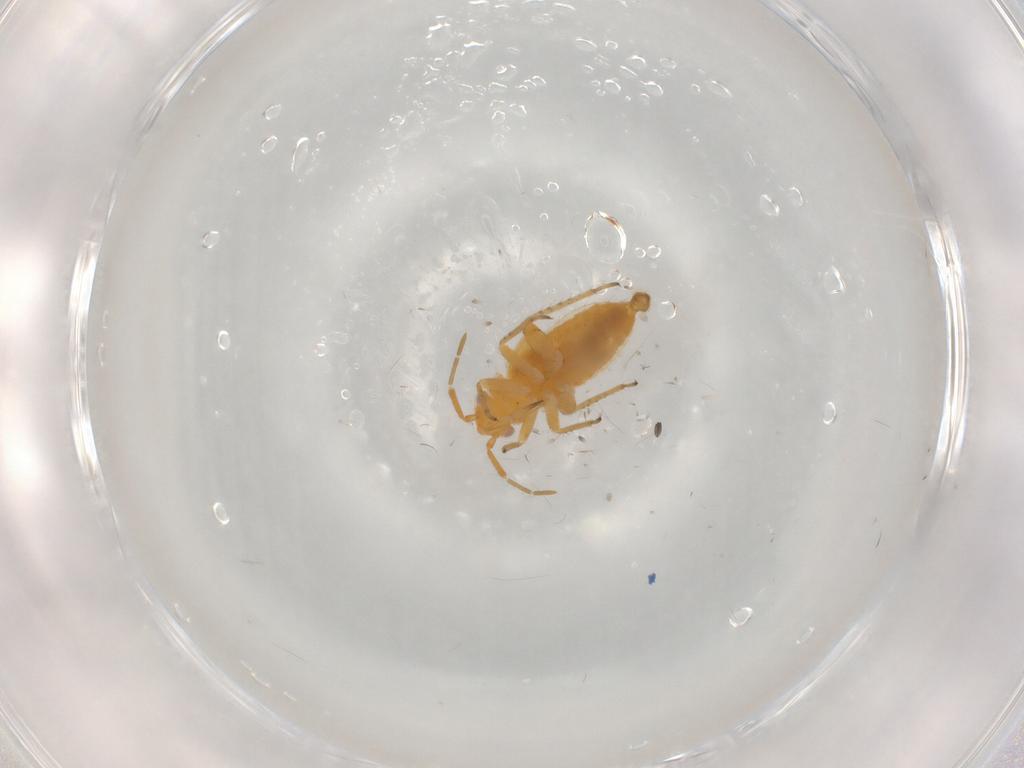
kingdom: Animalia
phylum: Arthropoda
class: Insecta
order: Hemiptera
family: Miridae
